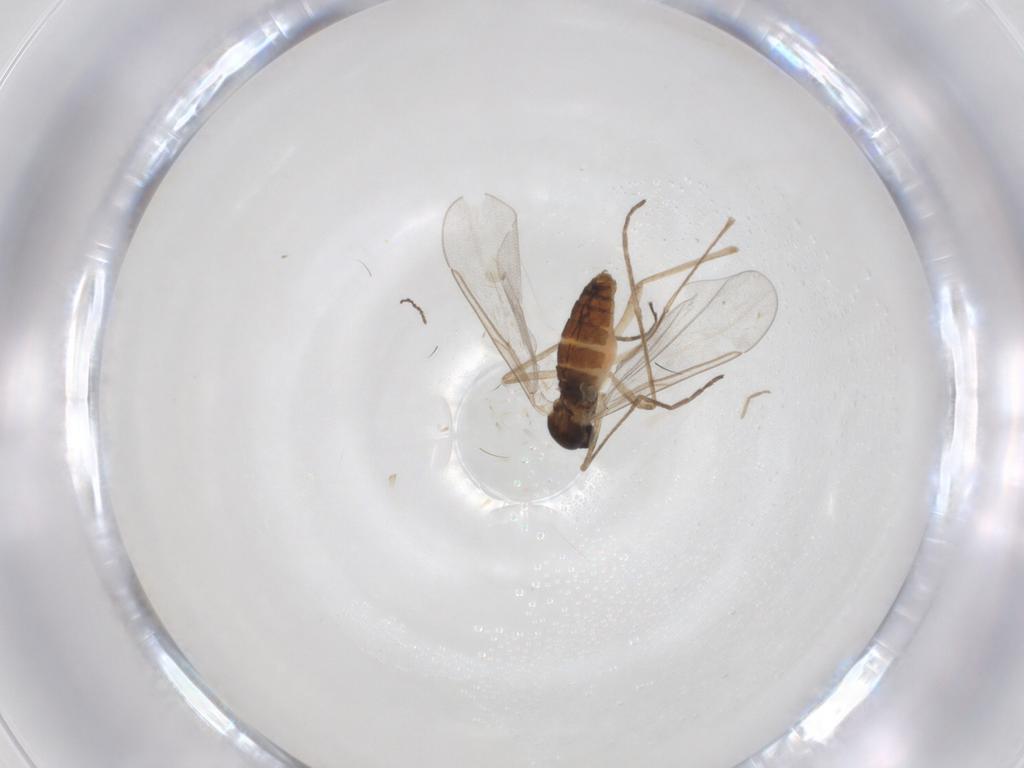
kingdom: Animalia
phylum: Arthropoda
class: Insecta
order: Diptera
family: Cecidomyiidae
